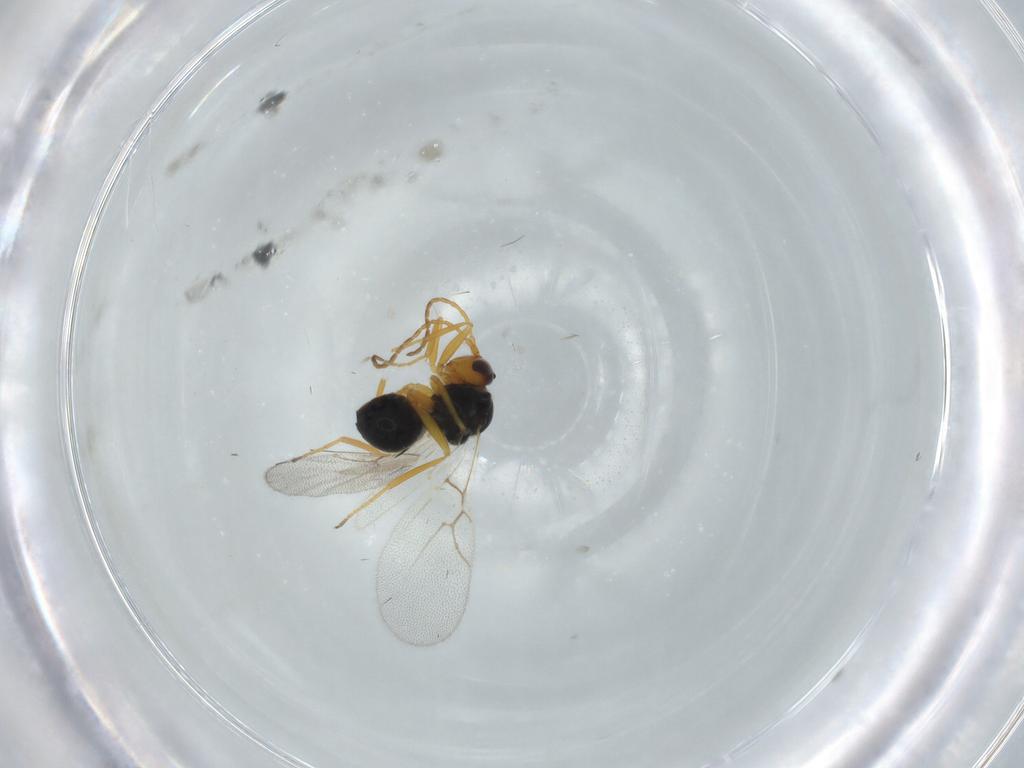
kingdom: Animalia
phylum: Arthropoda
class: Insecta
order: Hymenoptera
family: Figitidae
